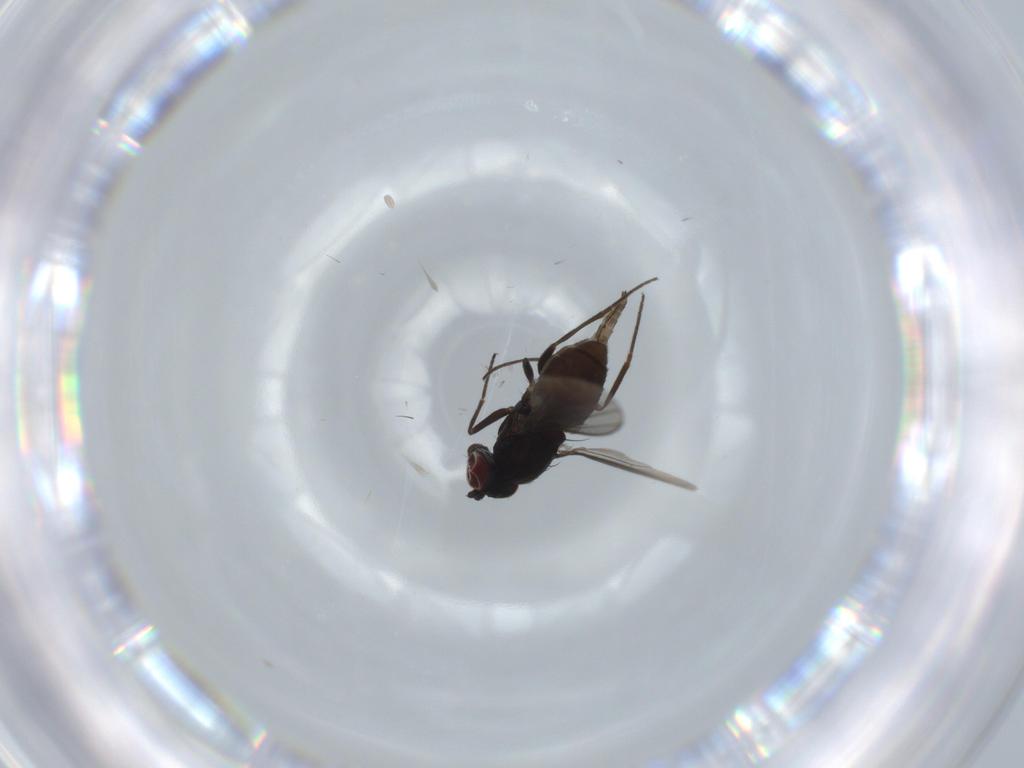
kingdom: Animalia
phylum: Arthropoda
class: Insecta
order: Diptera
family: Dolichopodidae
